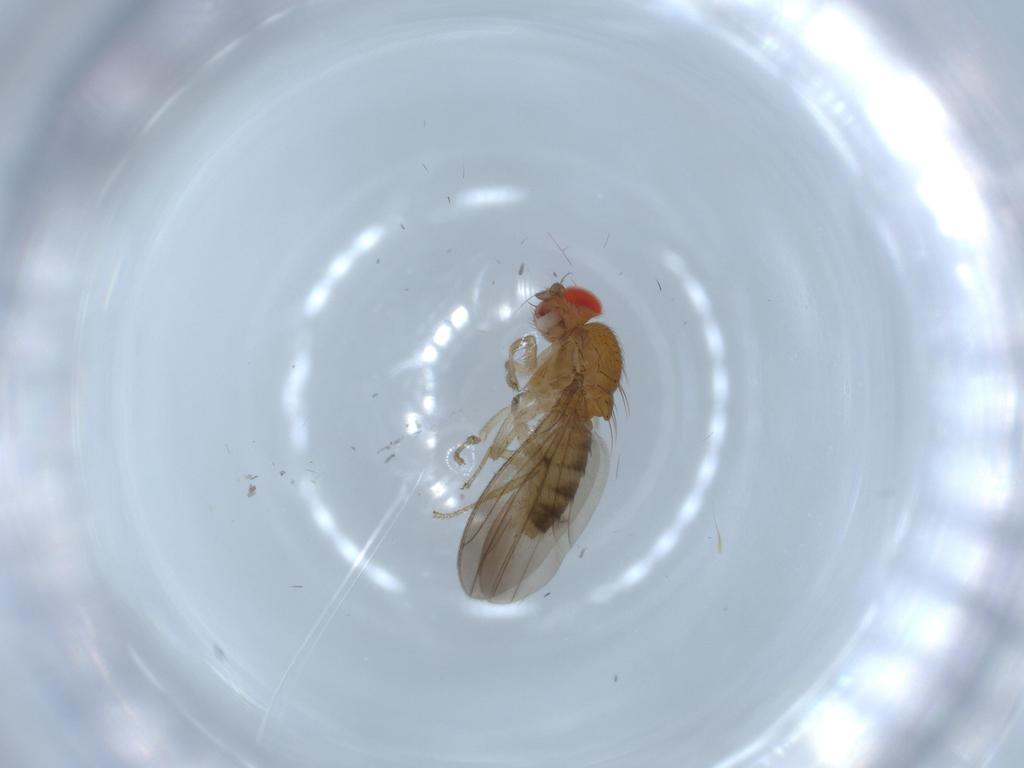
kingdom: Animalia
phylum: Arthropoda
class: Insecta
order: Diptera
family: Drosophilidae
